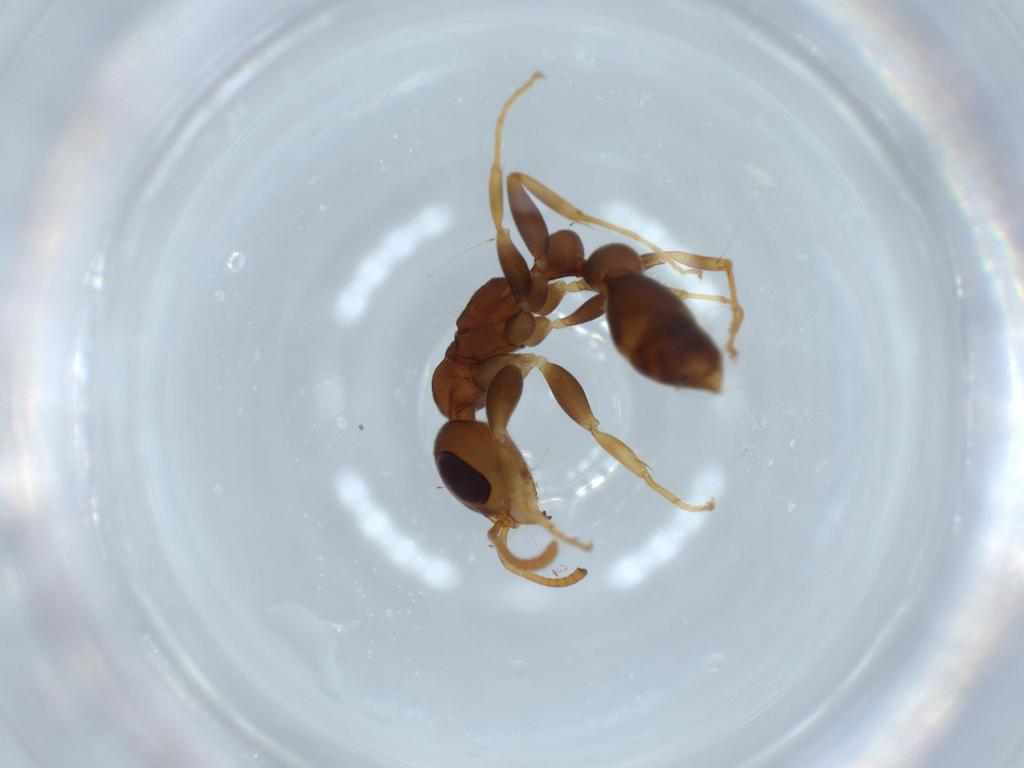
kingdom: Animalia
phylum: Arthropoda
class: Insecta
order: Hymenoptera
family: Formicidae
